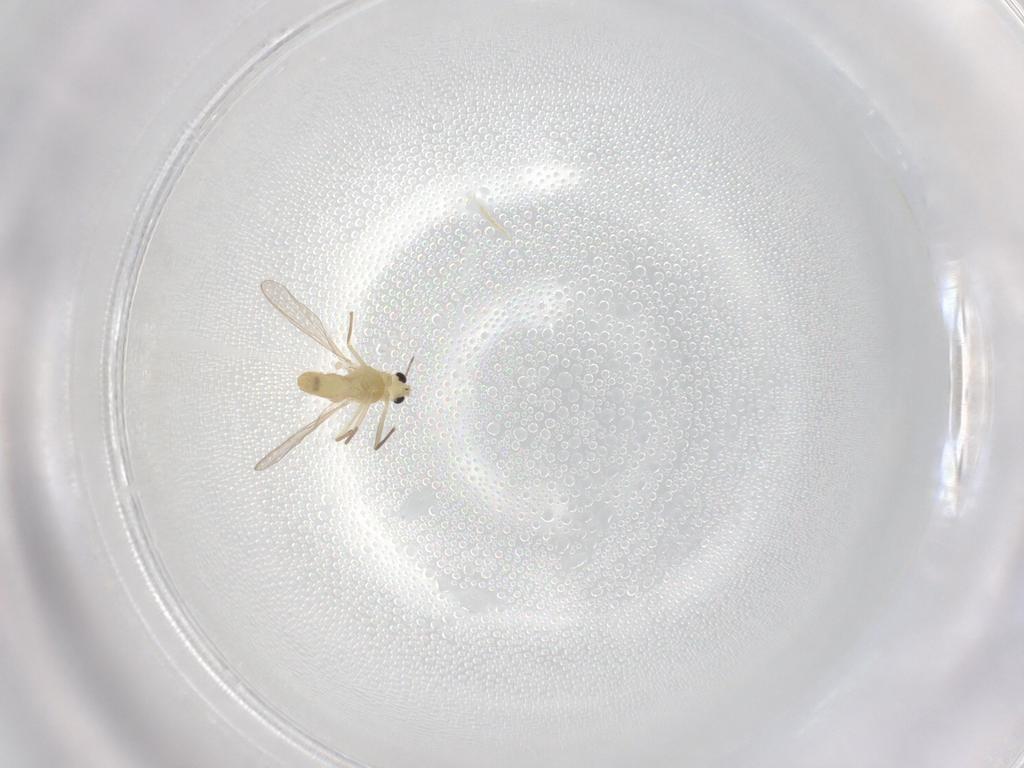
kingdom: Animalia
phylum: Arthropoda
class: Insecta
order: Diptera
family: Chironomidae
